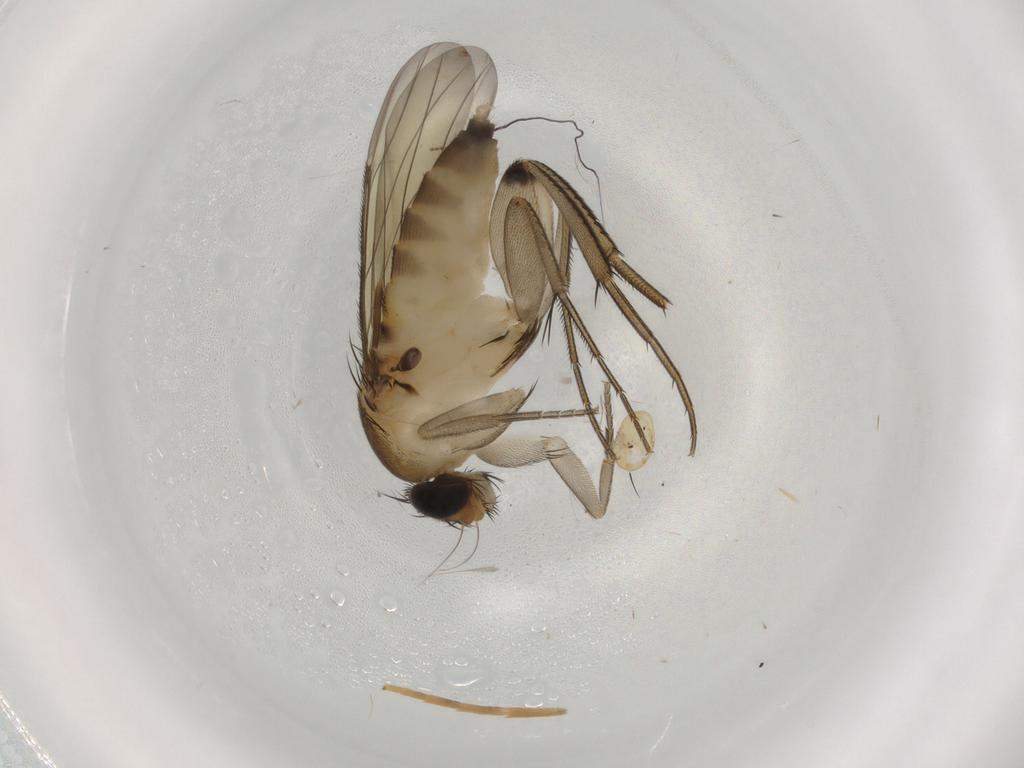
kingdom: Animalia
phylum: Arthropoda
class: Insecta
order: Diptera
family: Phoridae
